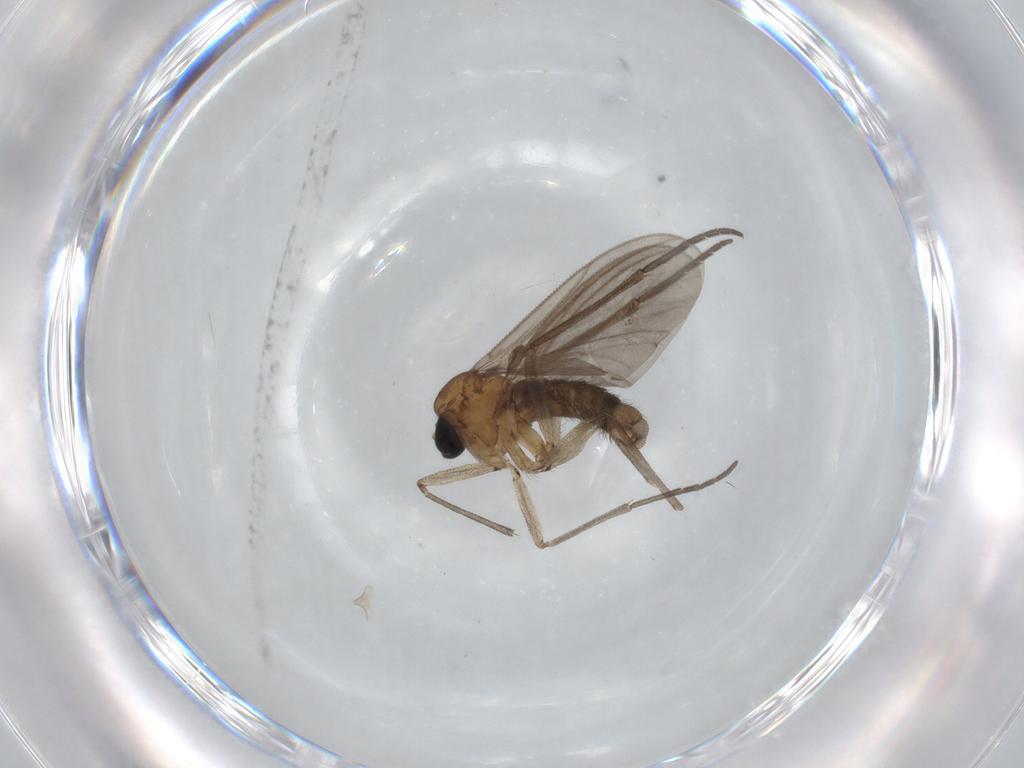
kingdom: Animalia
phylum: Arthropoda
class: Insecta
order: Diptera
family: Sciaridae
